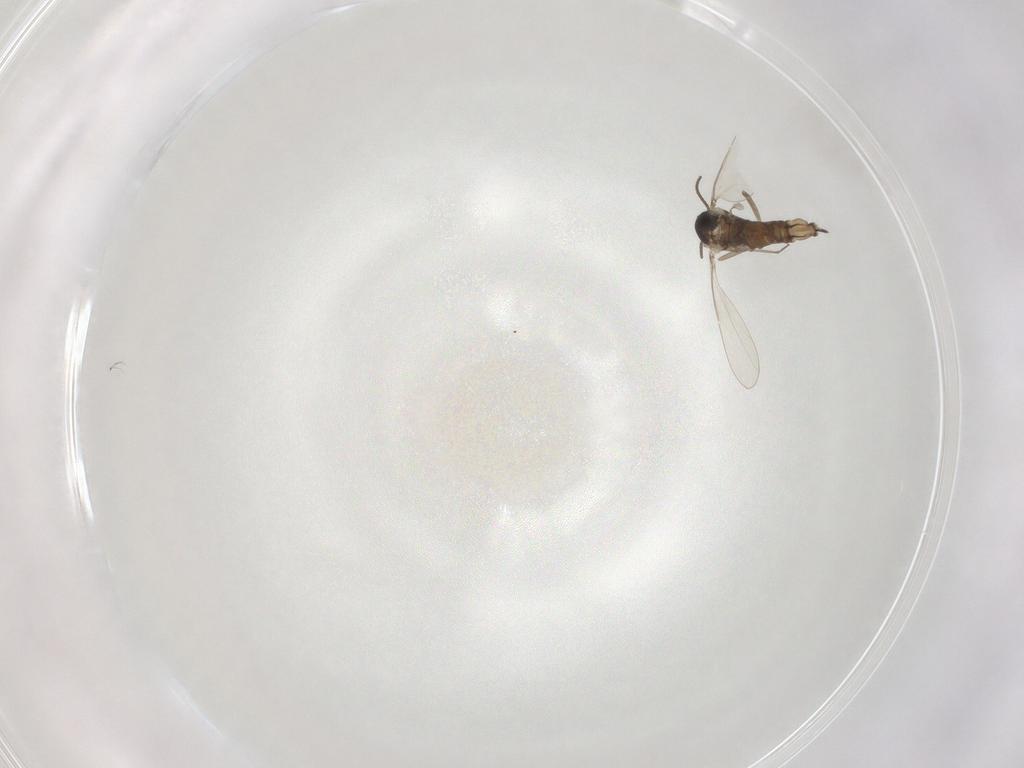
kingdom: Animalia
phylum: Arthropoda
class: Insecta
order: Diptera
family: Cecidomyiidae
